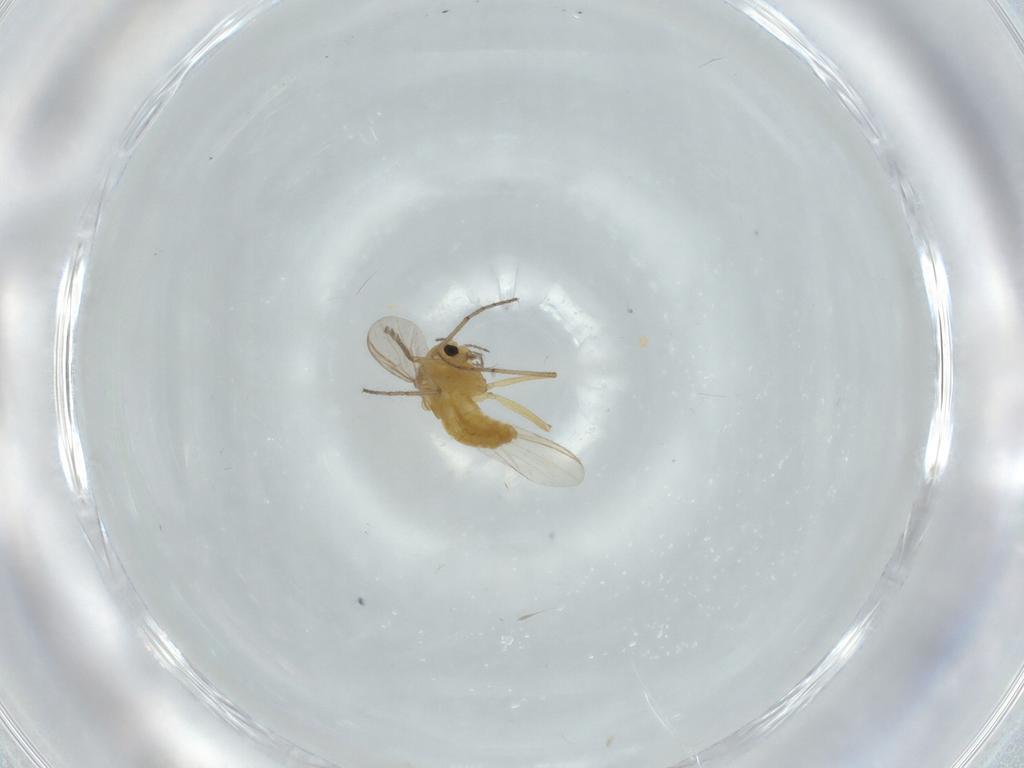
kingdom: Animalia
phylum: Arthropoda
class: Insecta
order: Diptera
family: Chironomidae
